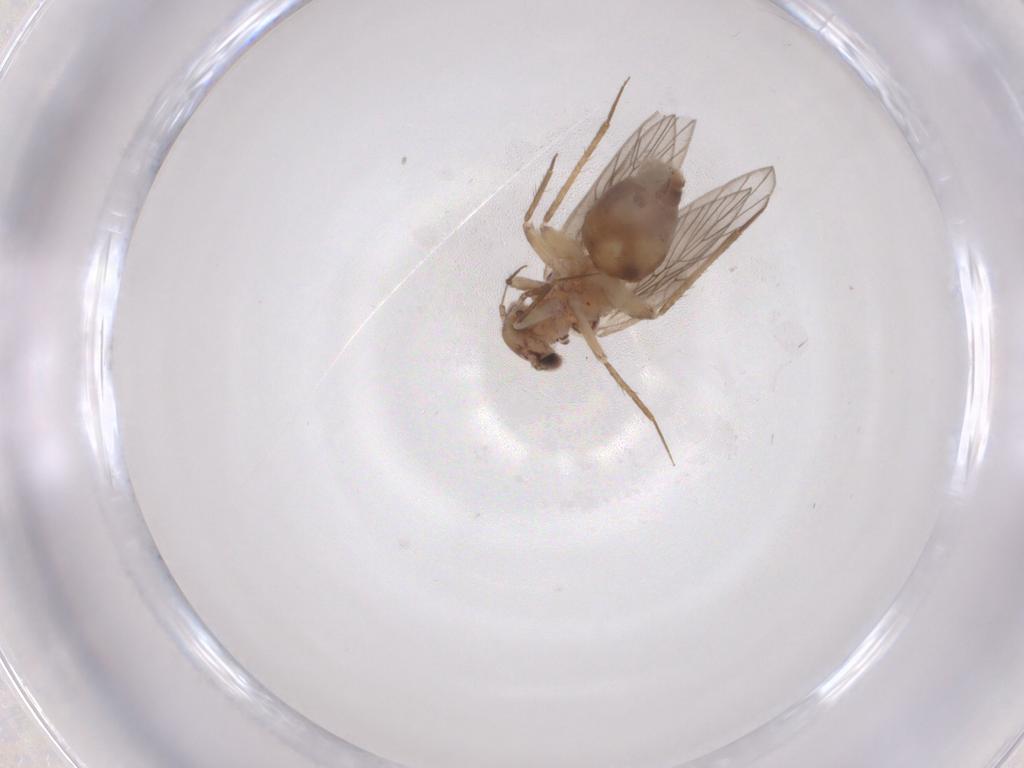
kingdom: Animalia
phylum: Arthropoda
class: Insecta
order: Psocodea
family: Lepidopsocidae
